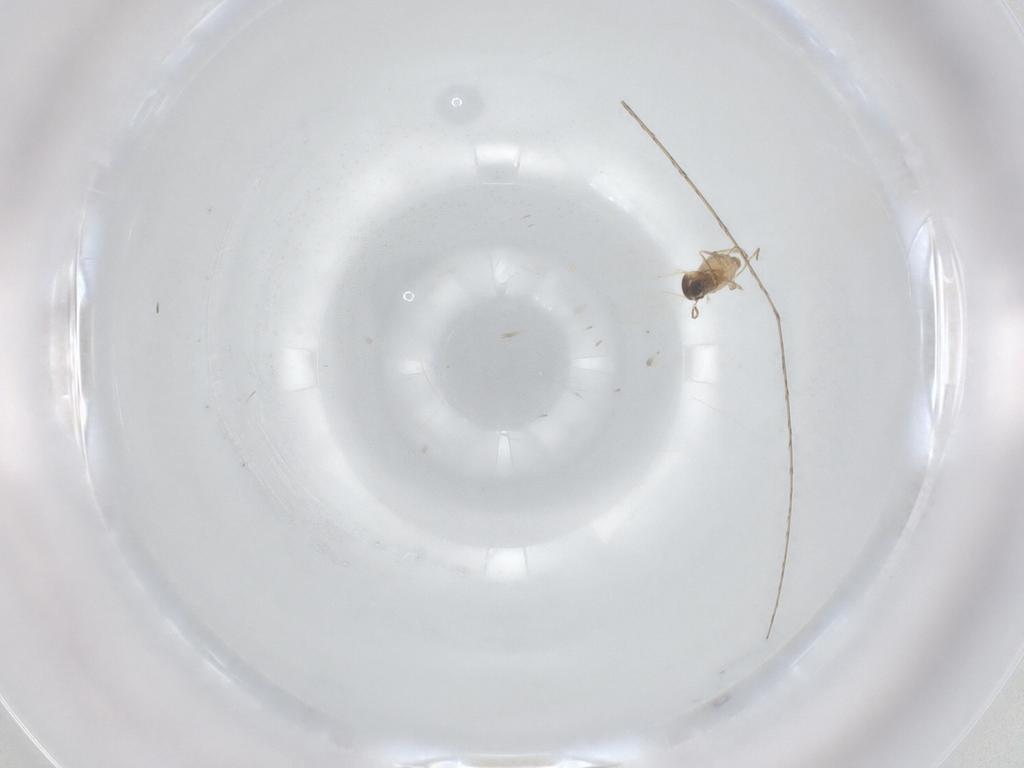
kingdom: Animalia
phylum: Arthropoda
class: Insecta
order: Diptera
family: Cecidomyiidae
